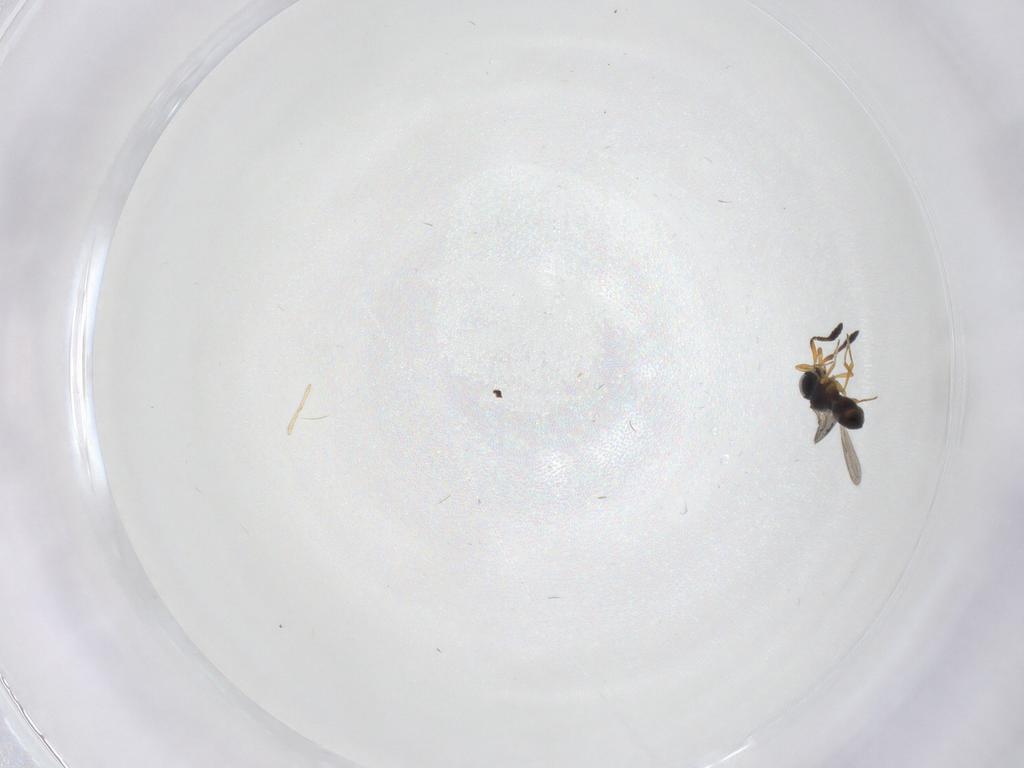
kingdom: Animalia
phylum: Arthropoda
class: Insecta
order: Hymenoptera
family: Scelionidae
